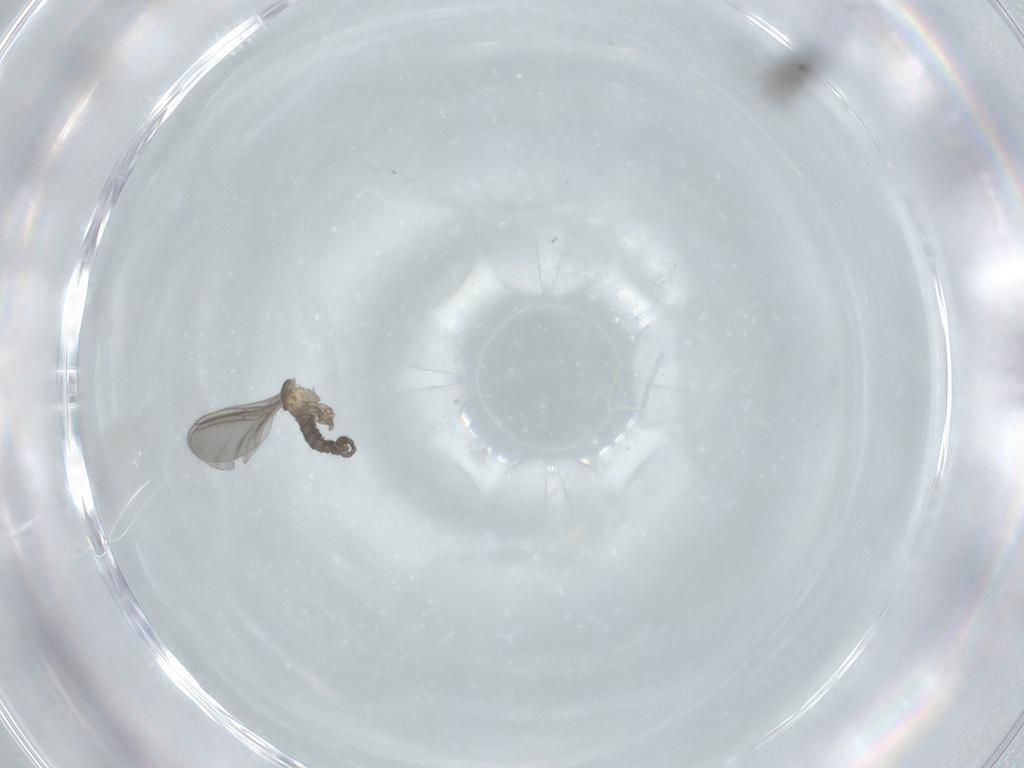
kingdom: Animalia
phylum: Arthropoda
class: Insecta
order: Diptera
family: Sciaridae
